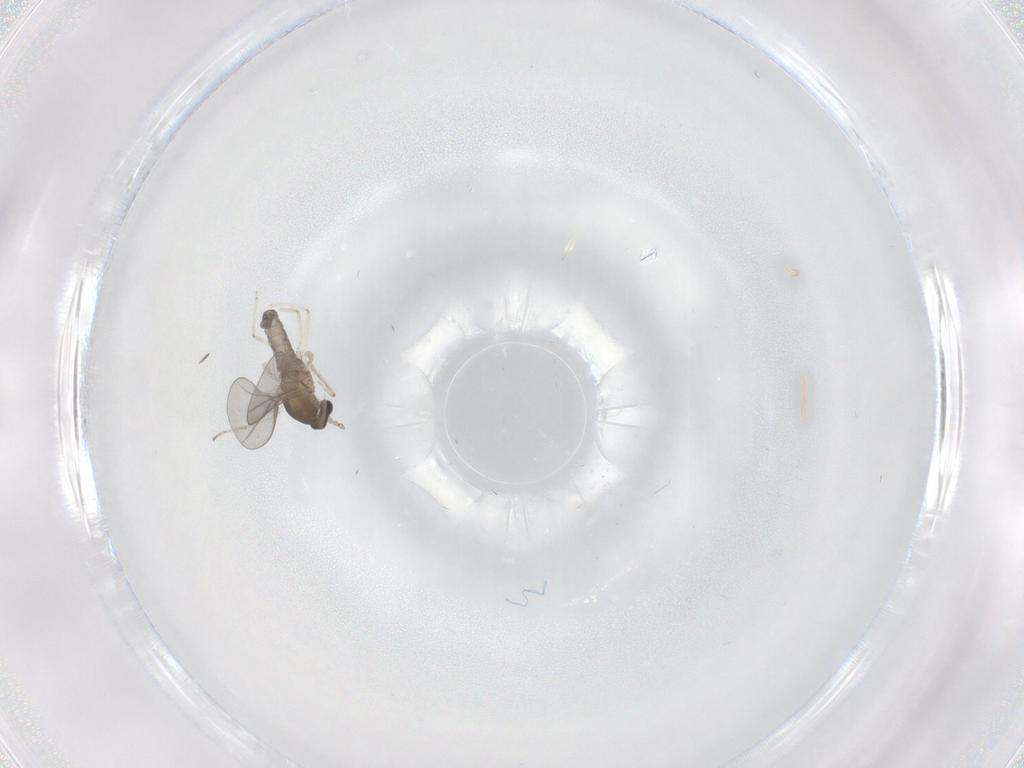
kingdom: Animalia
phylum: Arthropoda
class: Insecta
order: Diptera
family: Cecidomyiidae
